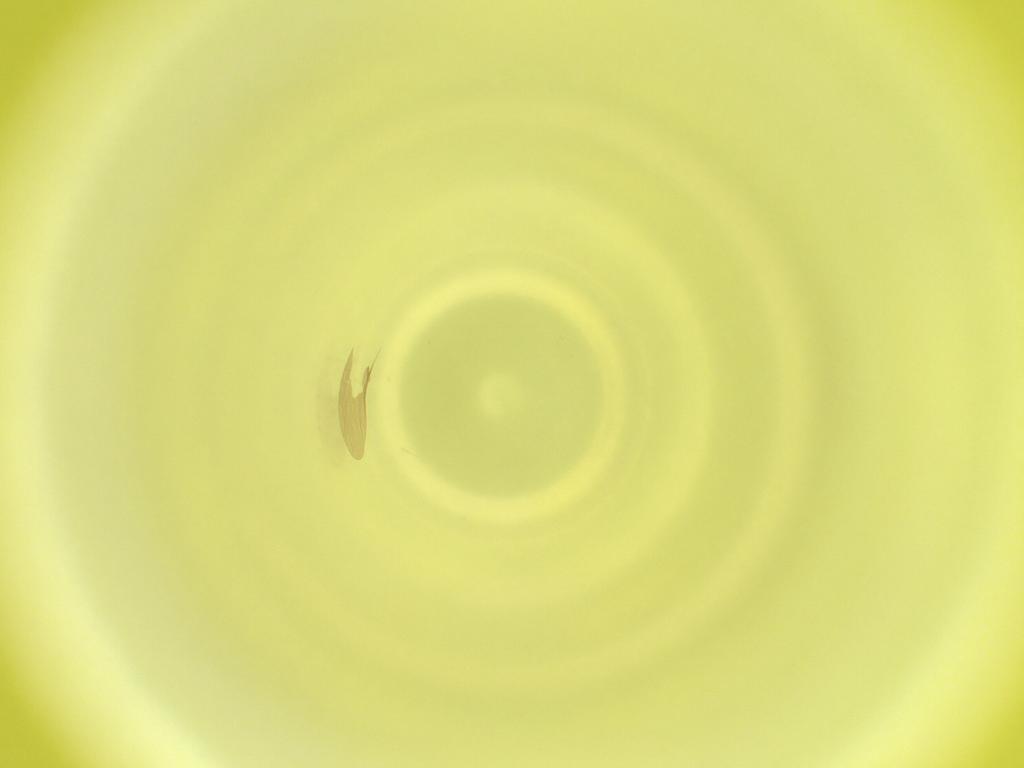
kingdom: Animalia
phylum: Arthropoda
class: Insecta
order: Diptera
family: Cecidomyiidae
